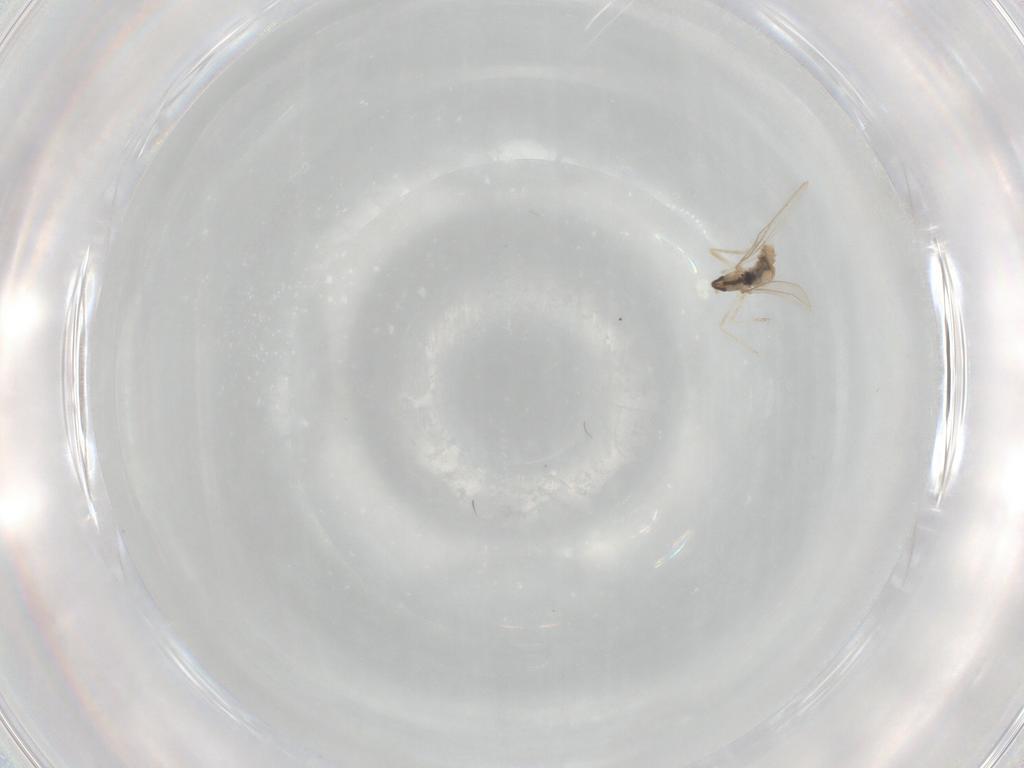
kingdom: Animalia
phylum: Arthropoda
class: Insecta
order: Diptera
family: Cecidomyiidae
